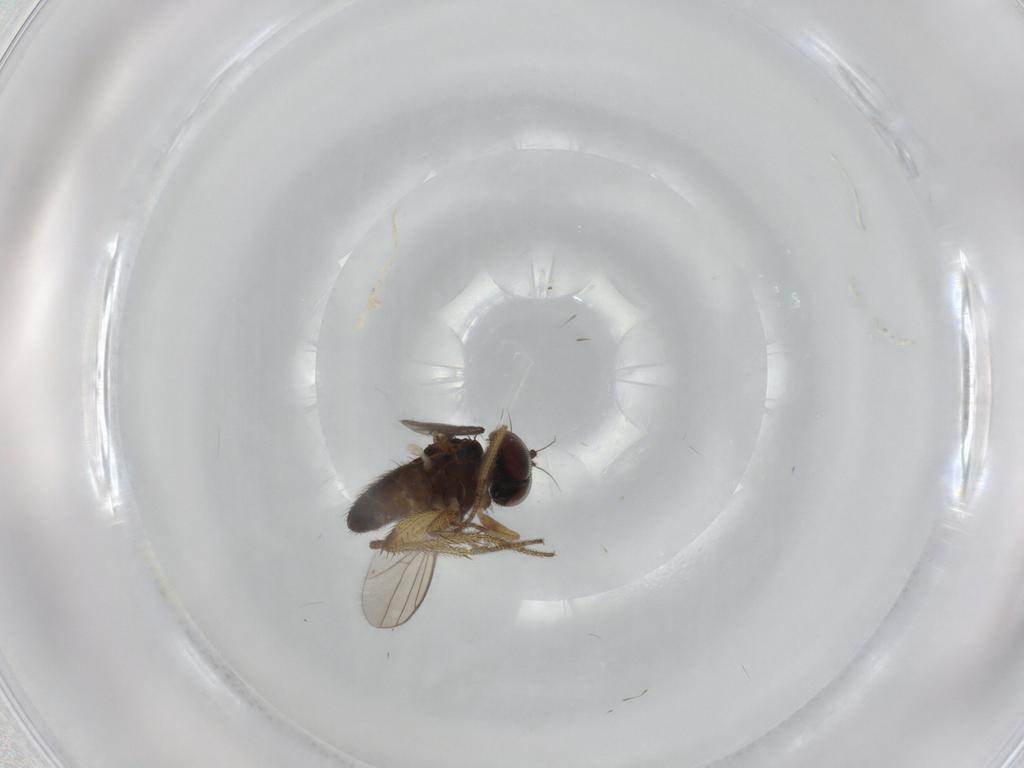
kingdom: Animalia
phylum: Arthropoda
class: Insecta
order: Diptera
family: Dolichopodidae
